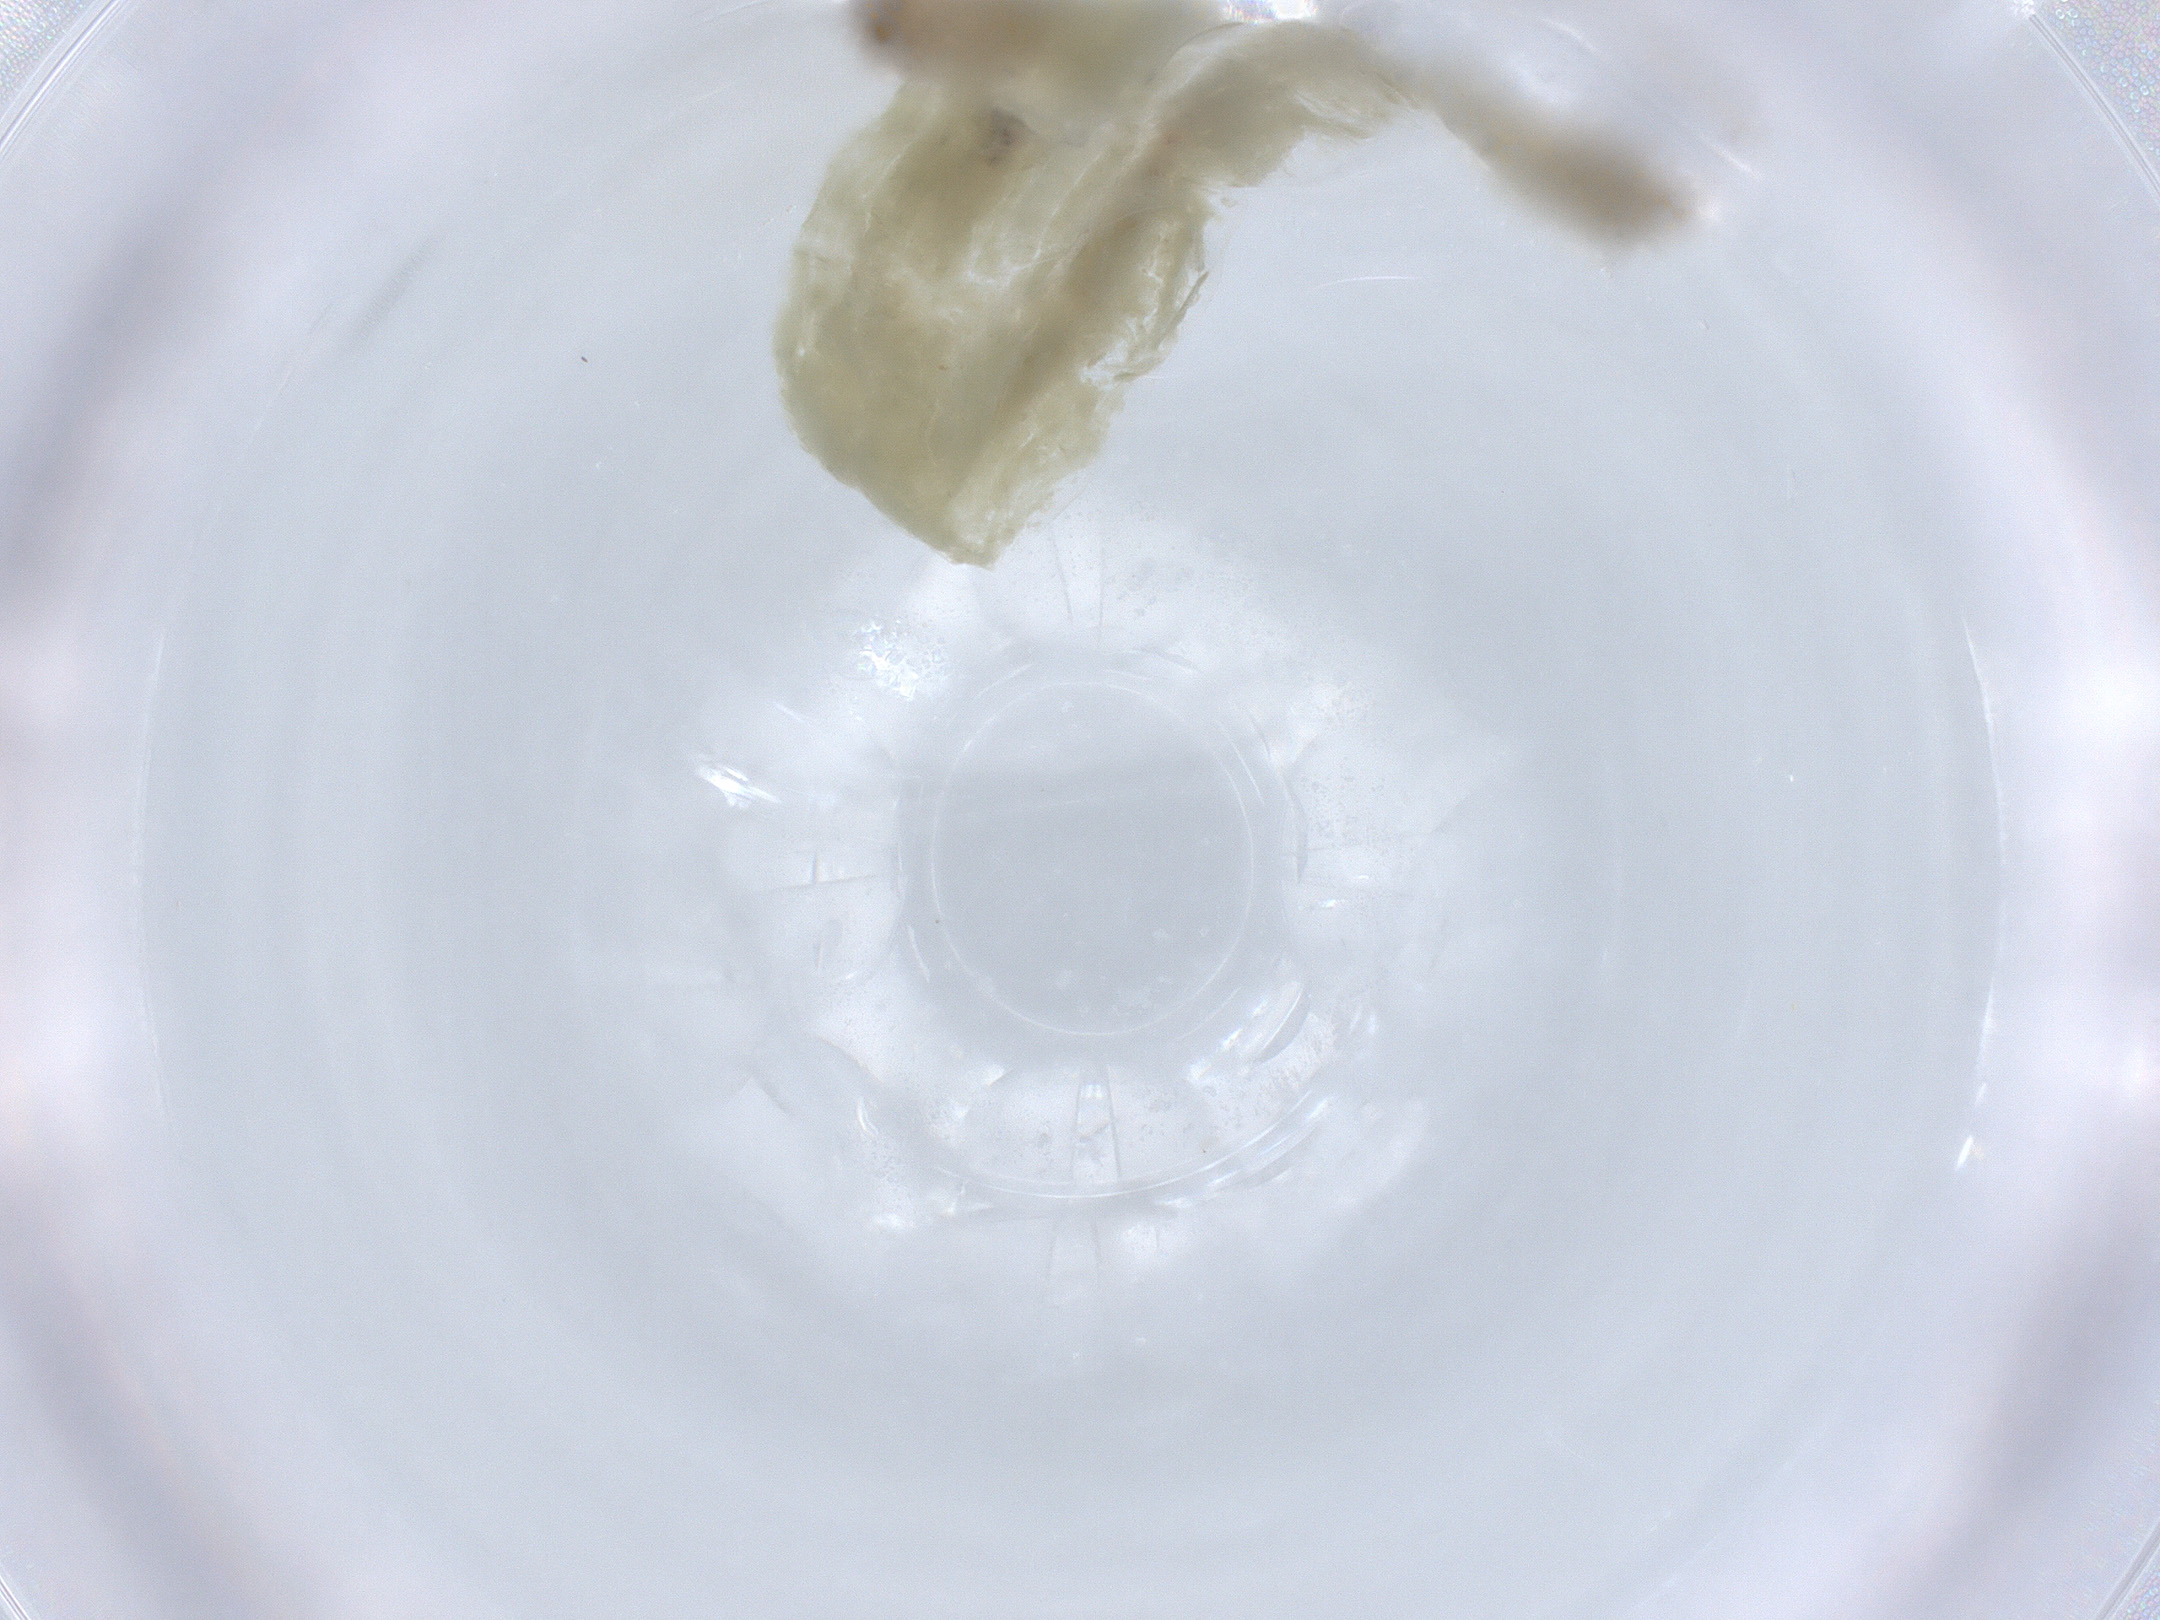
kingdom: Animalia
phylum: Arthropoda
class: Insecta
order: Diptera
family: Chironomidae
